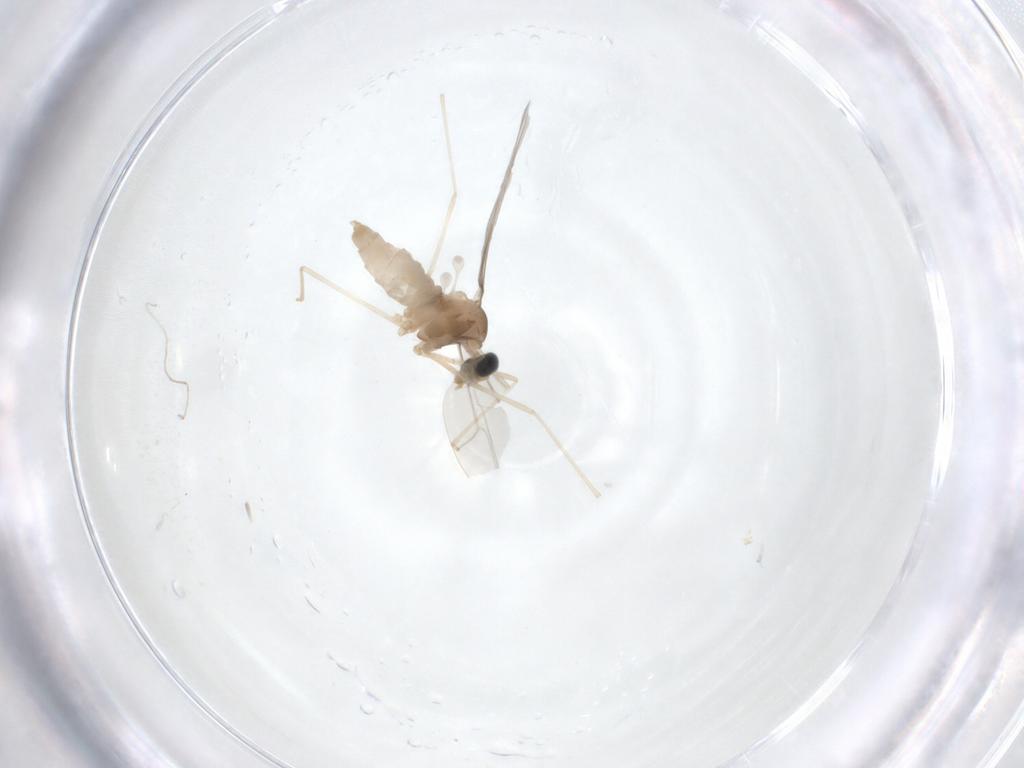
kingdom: Animalia
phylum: Arthropoda
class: Insecta
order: Diptera
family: Cecidomyiidae
